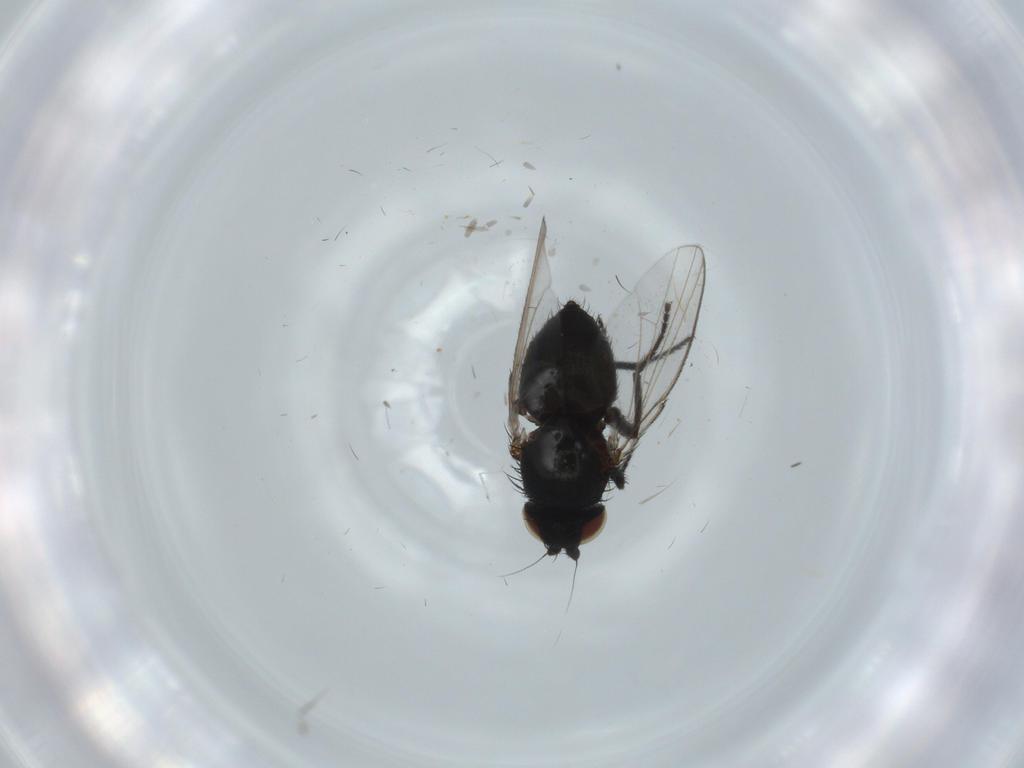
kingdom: Animalia
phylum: Arthropoda
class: Insecta
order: Diptera
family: Milichiidae
